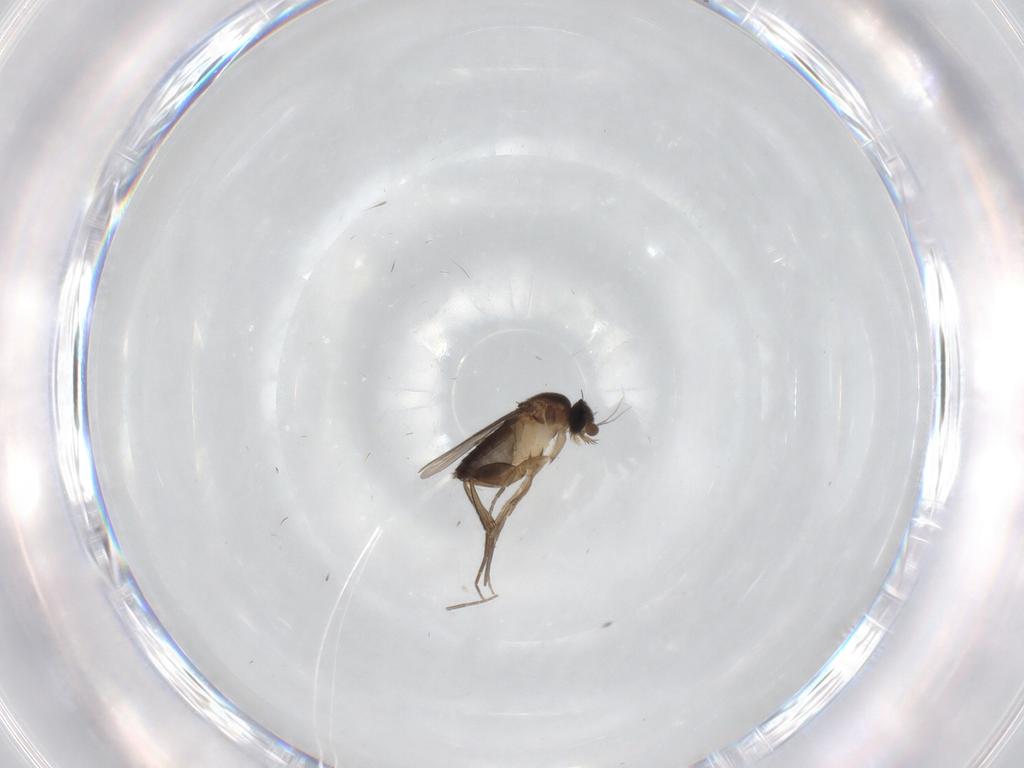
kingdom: Animalia
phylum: Arthropoda
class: Insecta
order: Diptera
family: Phoridae
